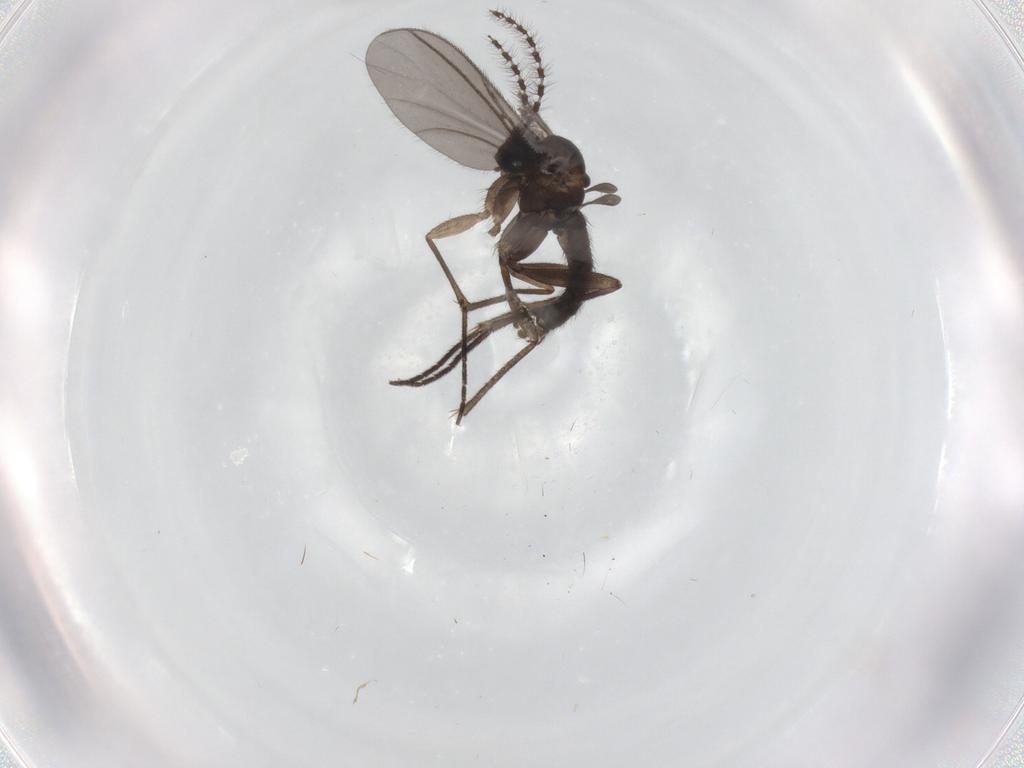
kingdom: Animalia
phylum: Arthropoda
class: Insecta
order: Diptera
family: Sciaridae
